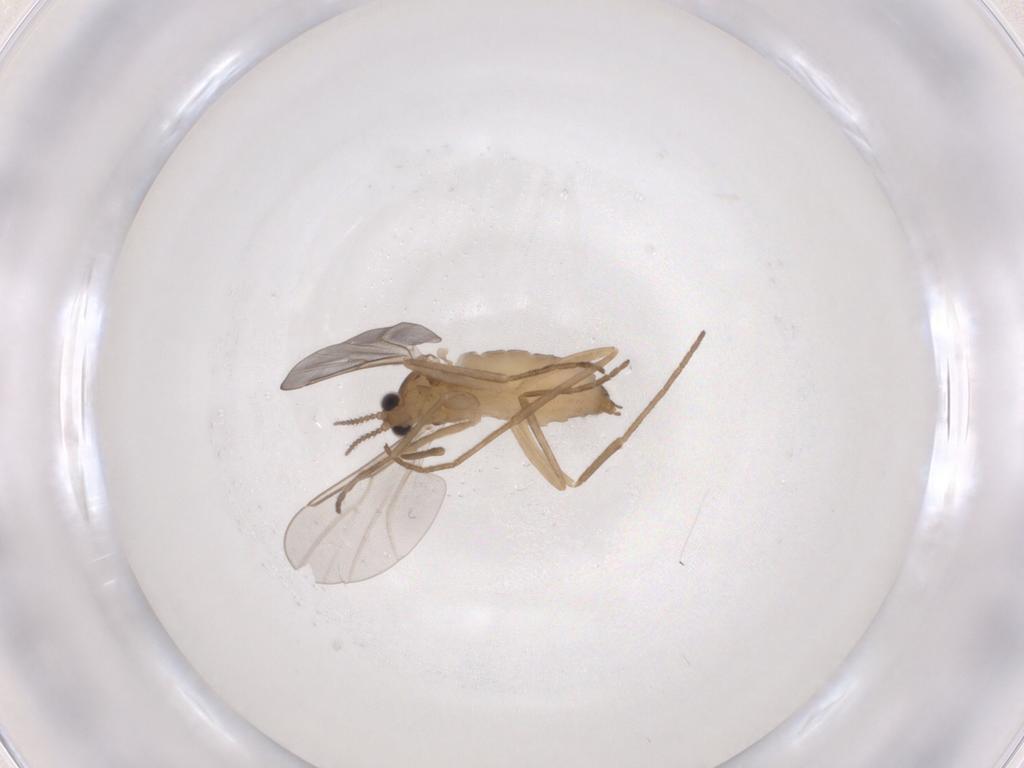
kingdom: Animalia
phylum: Arthropoda
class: Insecta
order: Diptera
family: Cecidomyiidae
